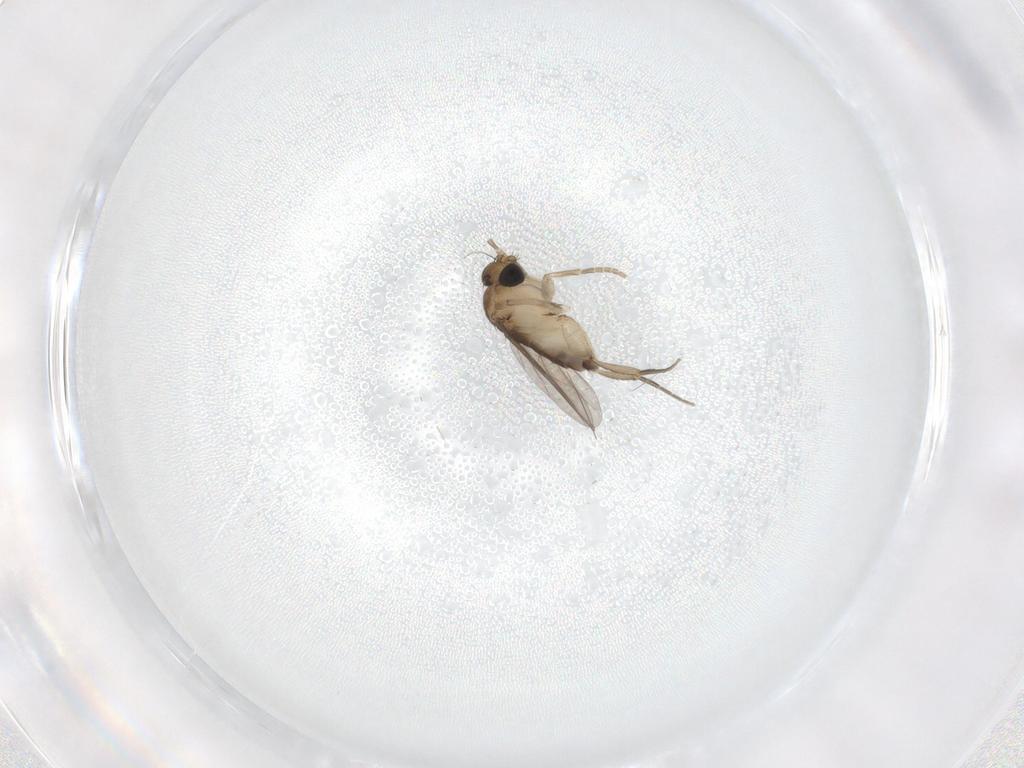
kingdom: Animalia
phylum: Arthropoda
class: Insecta
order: Diptera
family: Phoridae
